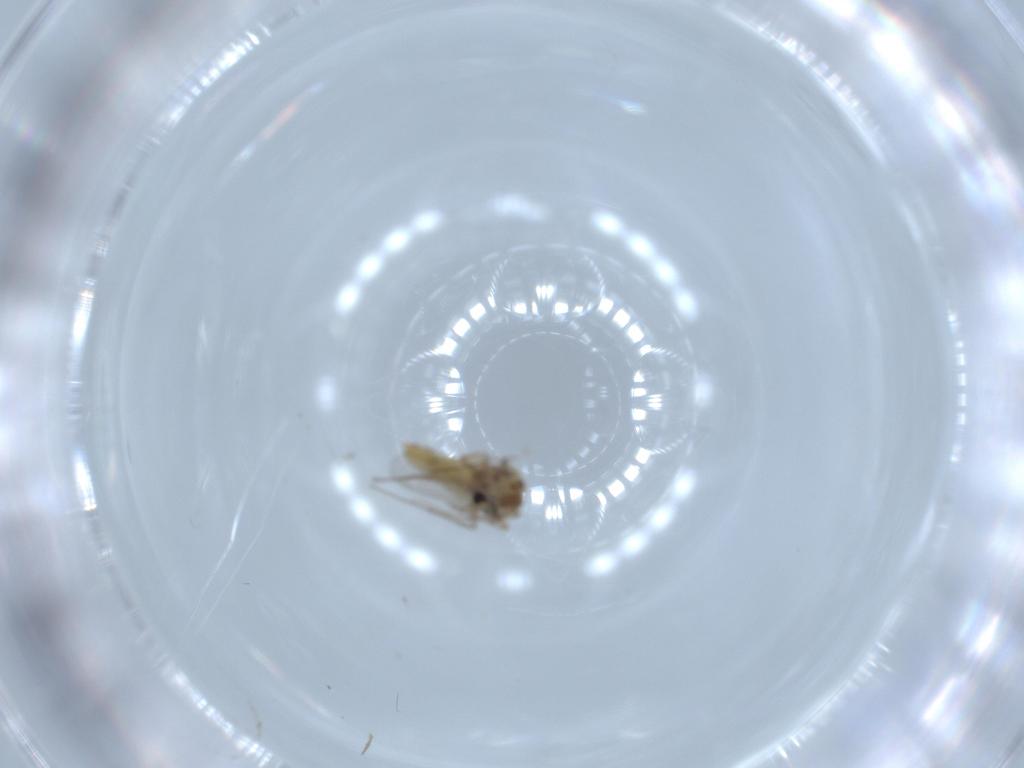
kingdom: Animalia
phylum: Arthropoda
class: Insecta
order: Diptera
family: Chironomidae
